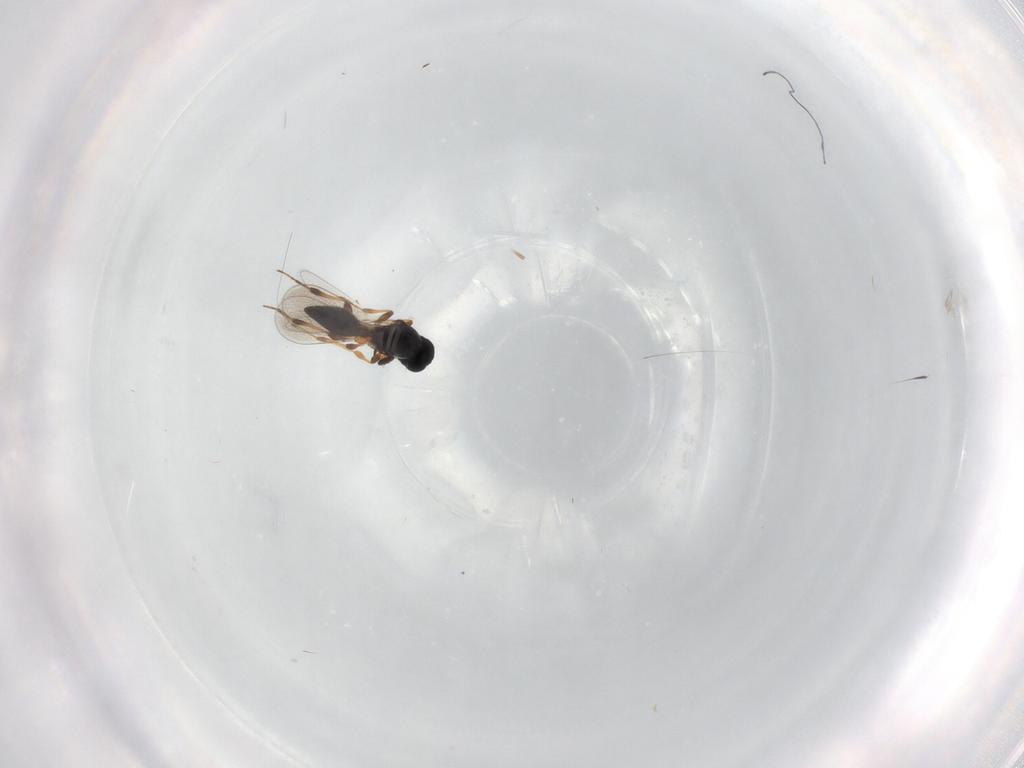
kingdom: Animalia
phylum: Arthropoda
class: Insecta
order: Hymenoptera
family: Platygastridae
